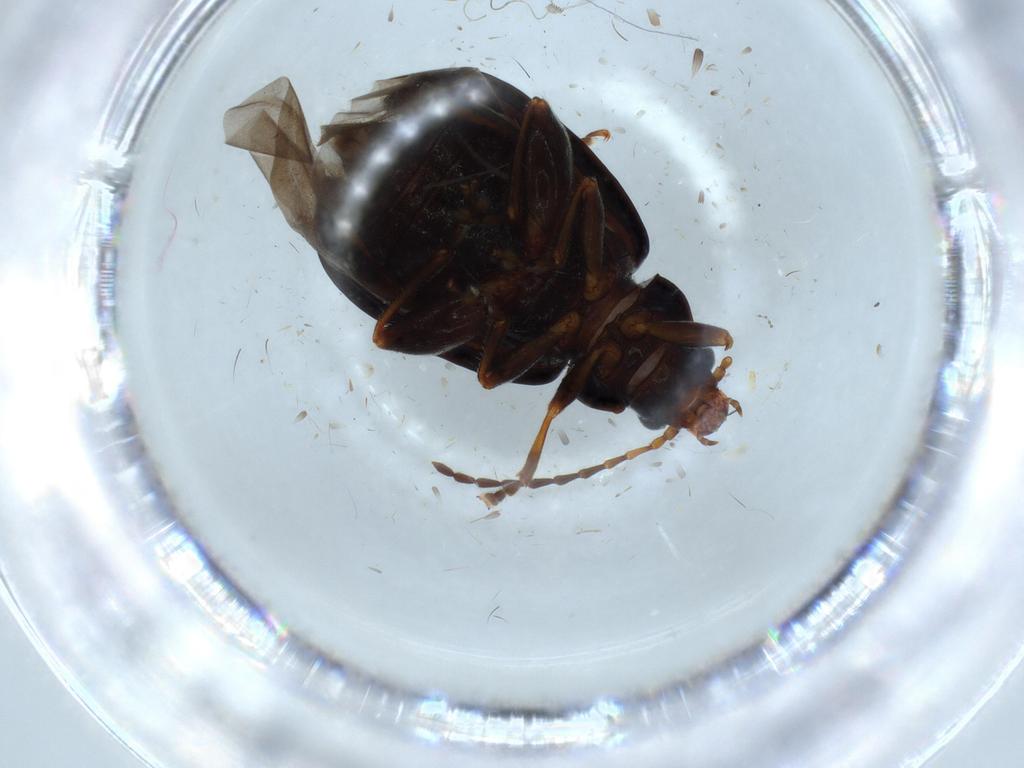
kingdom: Animalia
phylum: Arthropoda
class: Insecta
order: Coleoptera
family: Chrysomelidae
